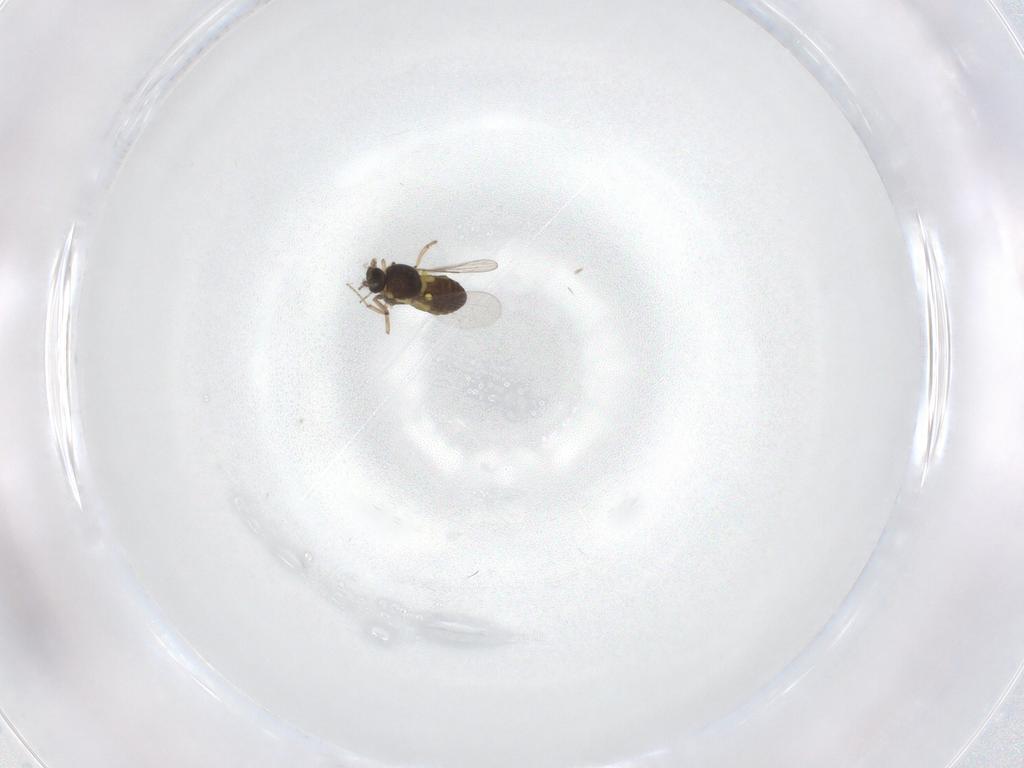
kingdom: Animalia
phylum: Arthropoda
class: Insecta
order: Diptera
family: Ceratopogonidae
